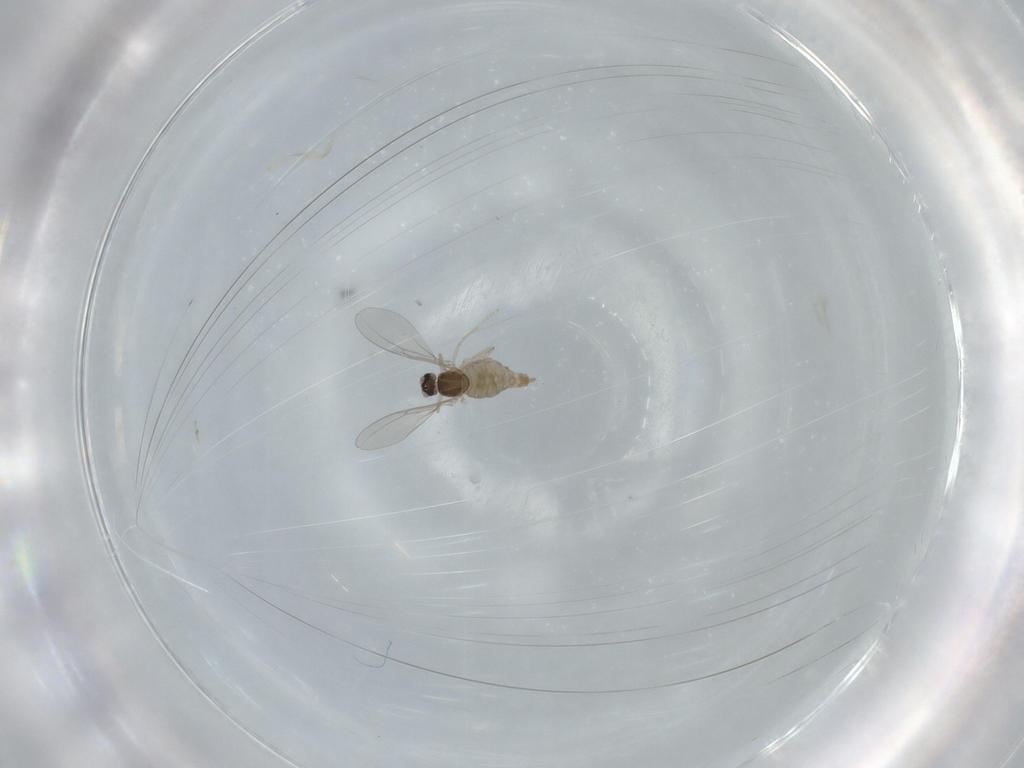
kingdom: Animalia
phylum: Arthropoda
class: Insecta
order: Diptera
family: Cecidomyiidae
